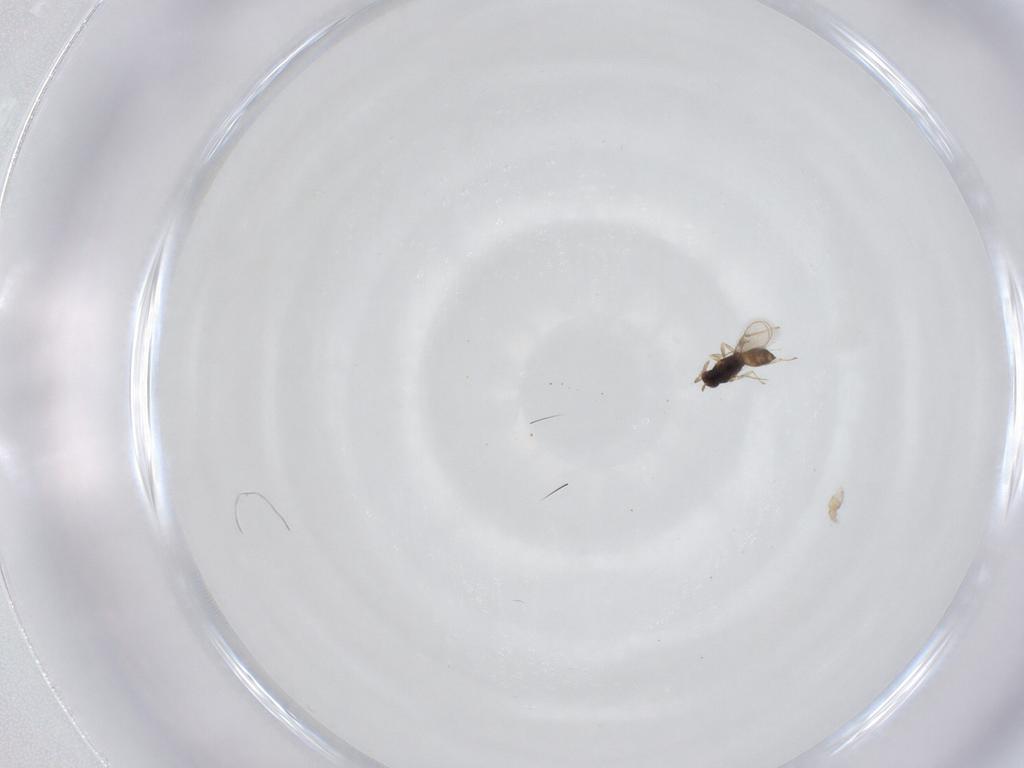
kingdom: Animalia
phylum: Arthropoda
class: Insecta
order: Hymenoptera
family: Eulophidae
